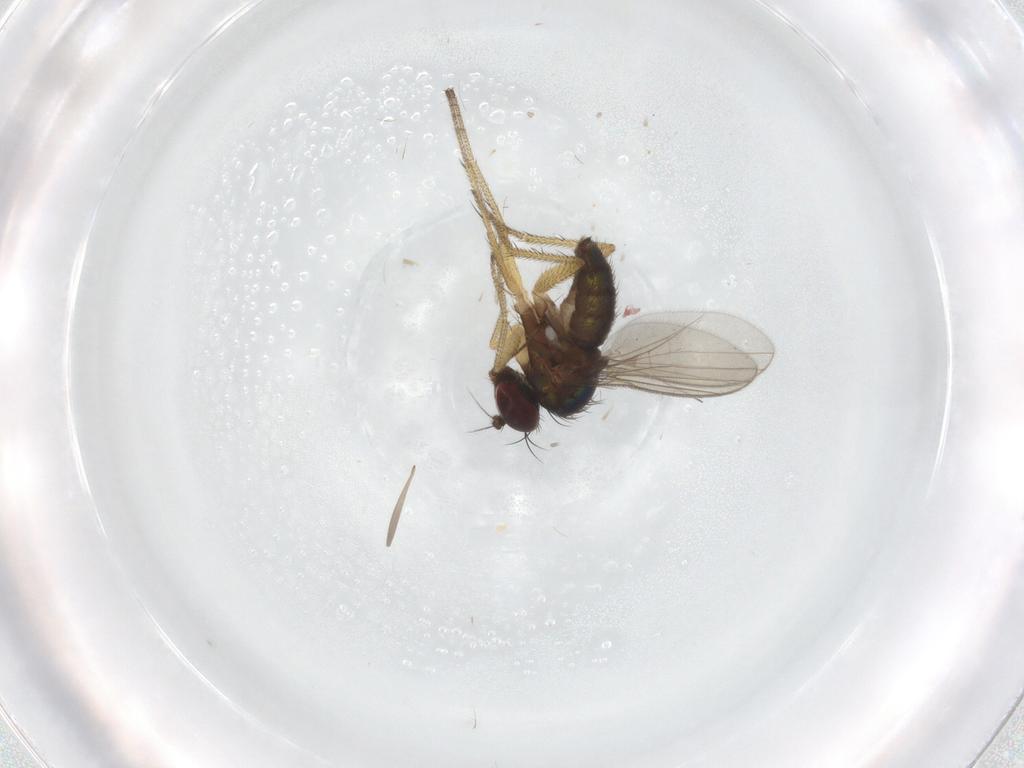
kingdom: Animalia
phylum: Arthropoda
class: Insecta
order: Diptera
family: Sciaridae
